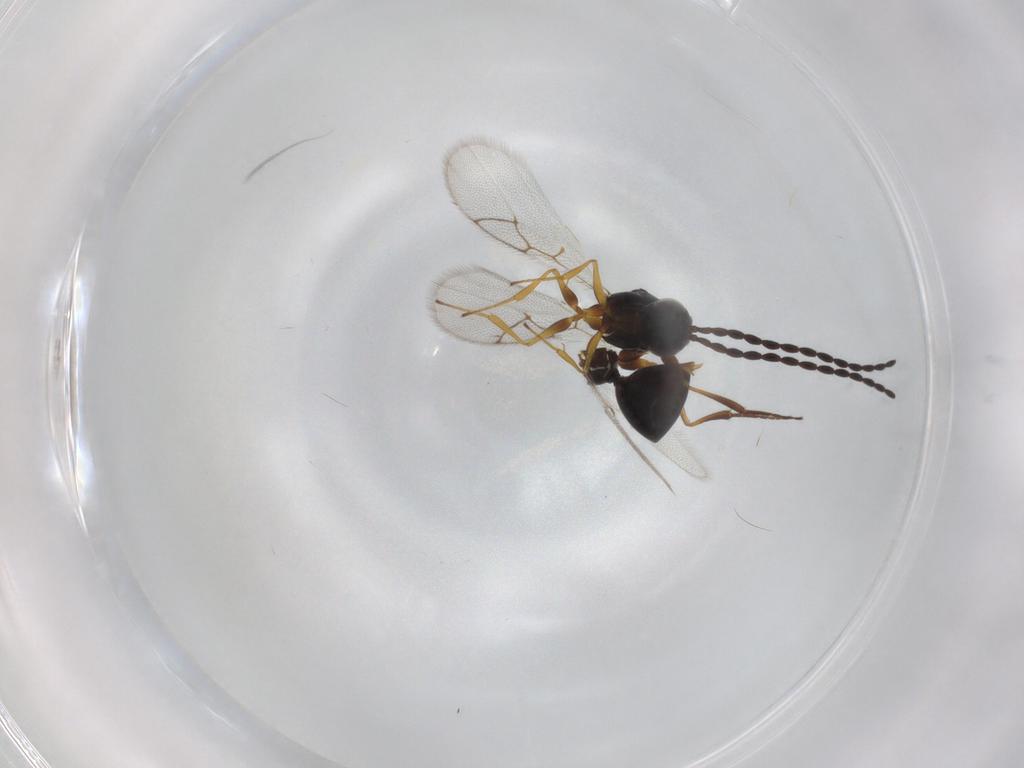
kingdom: Animalia
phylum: Arthropoda
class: Insecta
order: Hymenoptera
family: Figitidae
